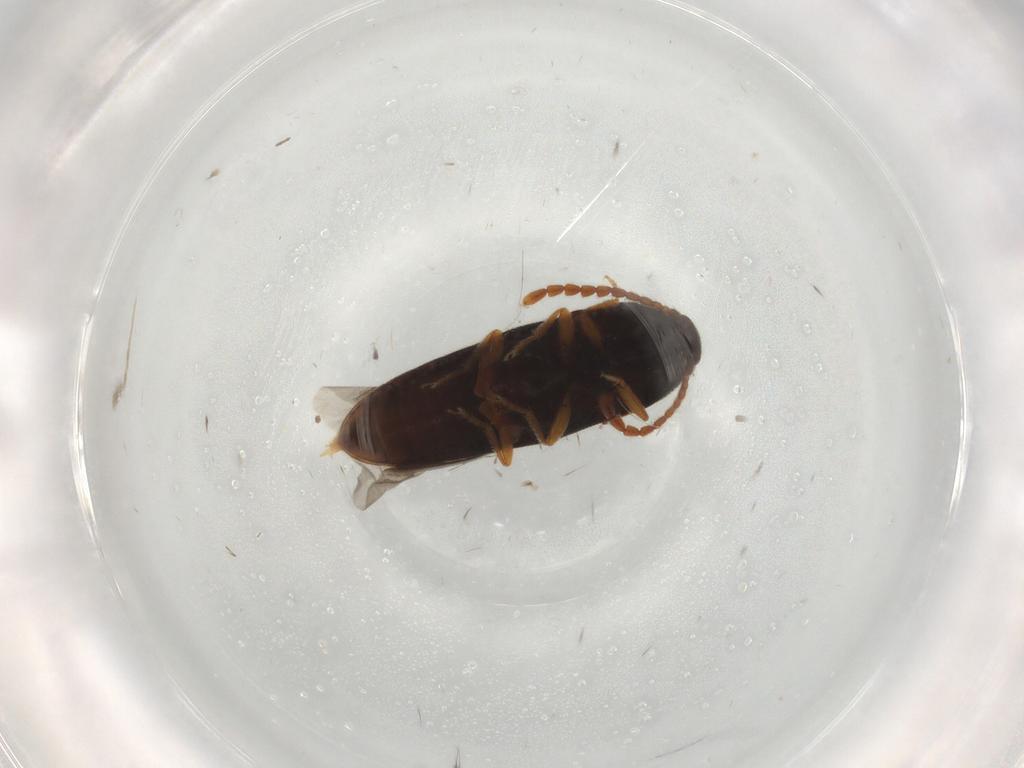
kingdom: Animalia
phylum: Arthropoda
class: Insecta
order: Coleoptera
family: Elateridae
